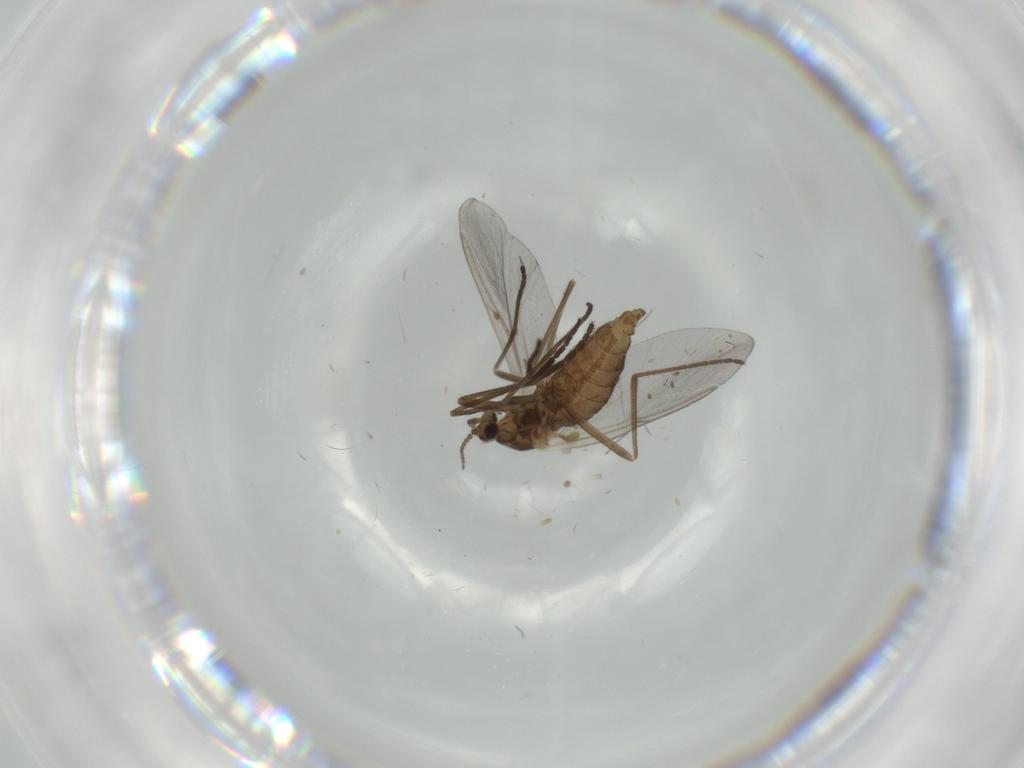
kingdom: Animalia
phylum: Arthropoda
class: Insecta
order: Diptera
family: Cecidomyiidae
